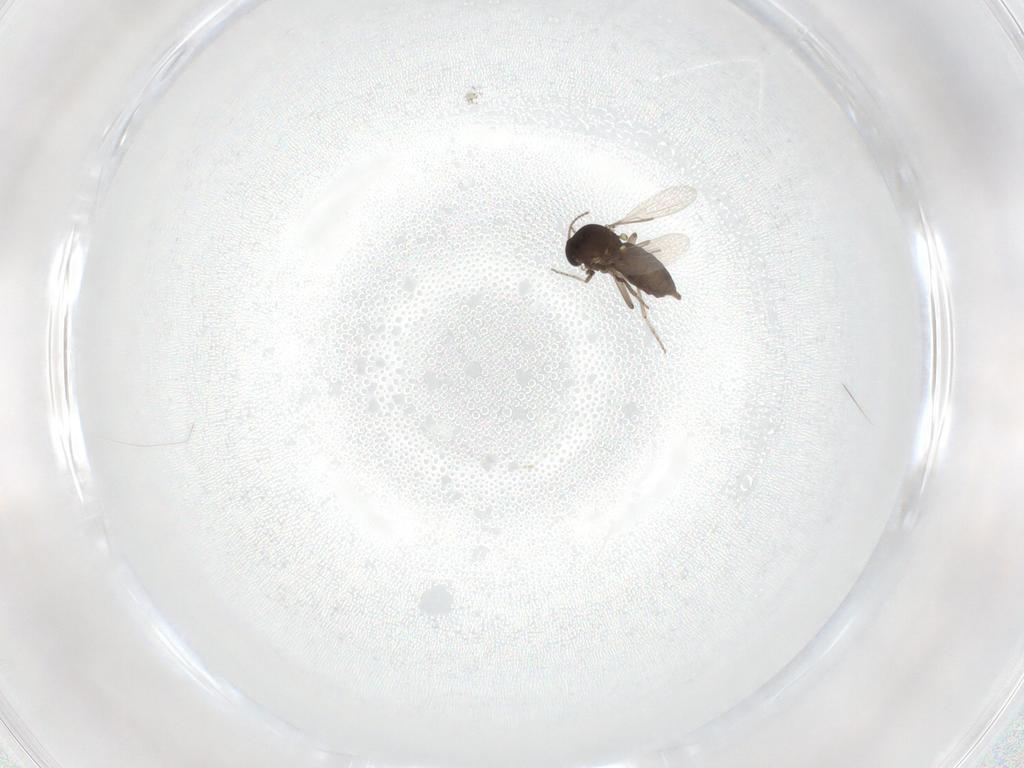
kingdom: Animalia
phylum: Arthropoda
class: Insecta
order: Diptera
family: Ceratopogonidae
